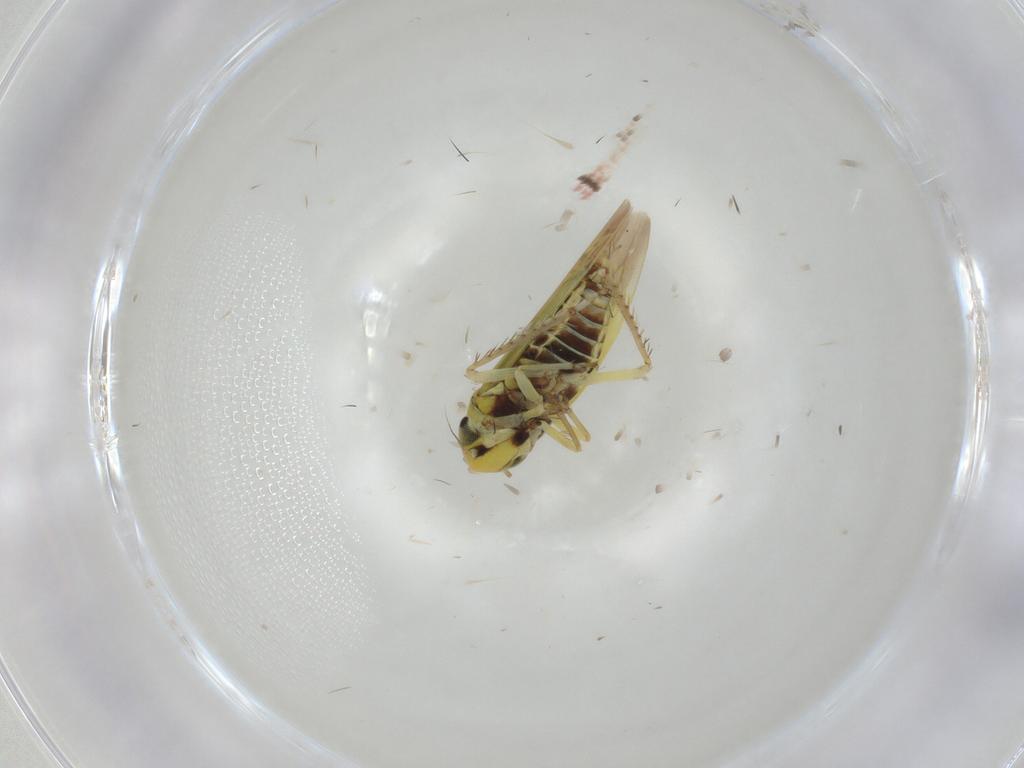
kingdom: Animalia
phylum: Arthropoda
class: Insecta
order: Hemiptera
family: Cicadellidae
